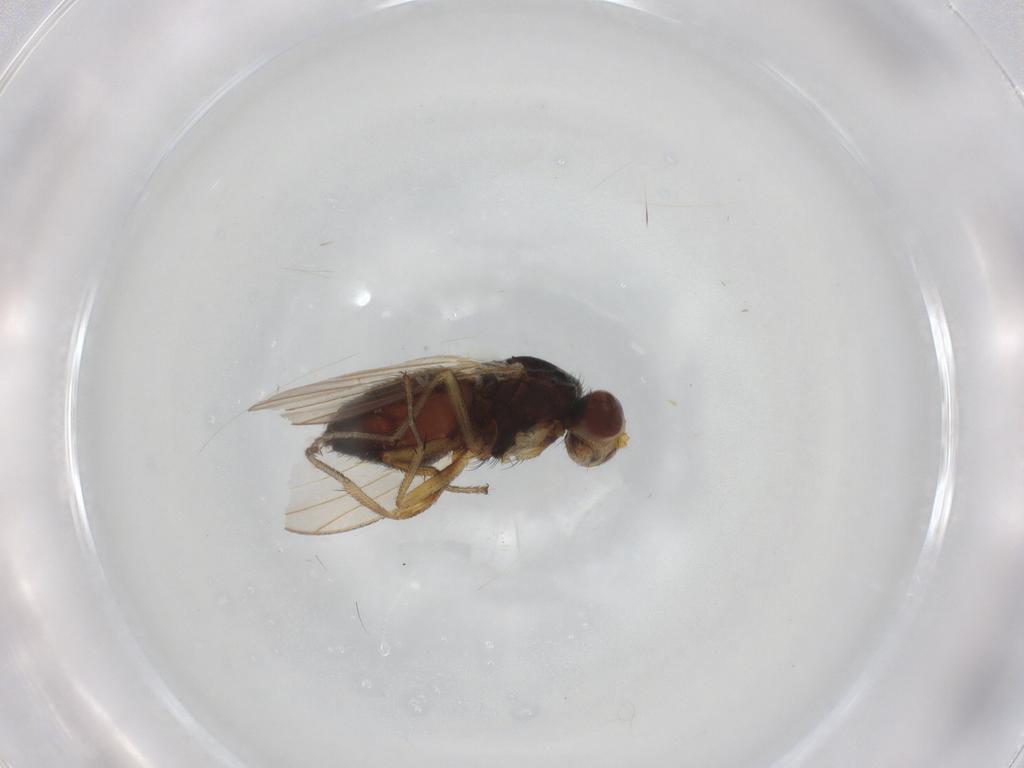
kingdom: Animalia
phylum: Arthropoda
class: Insecta
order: Diptera
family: Heleomyzidae
